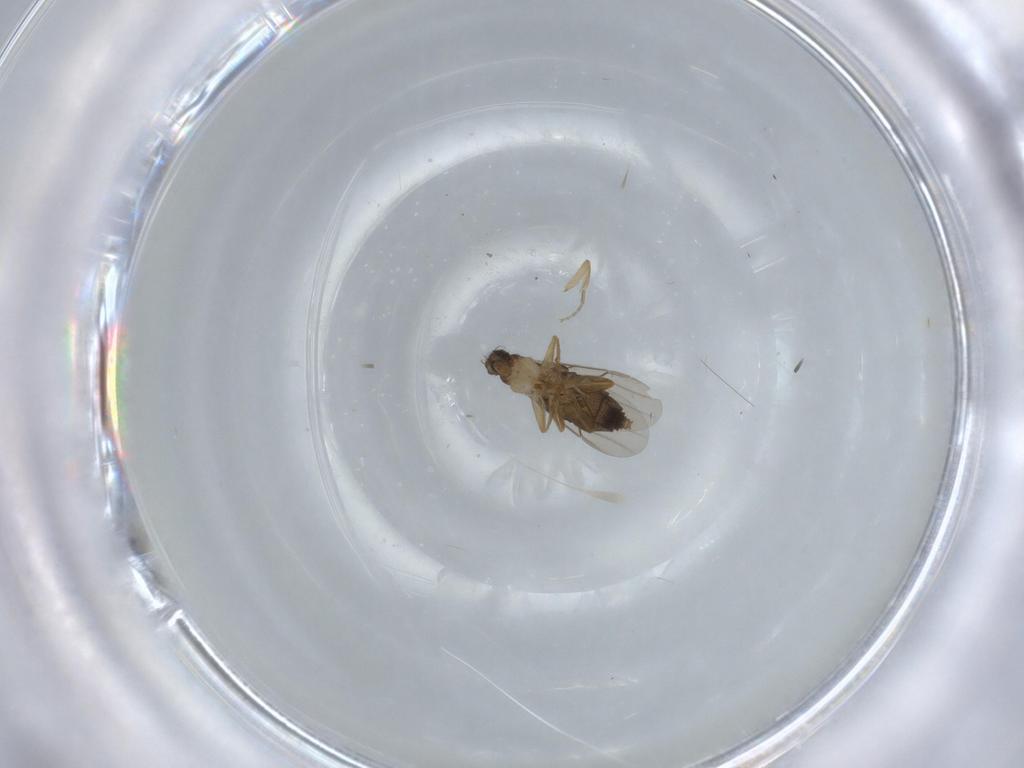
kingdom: Animalia
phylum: Arthropoda
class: Insecta
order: Diptera
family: Phoridae
